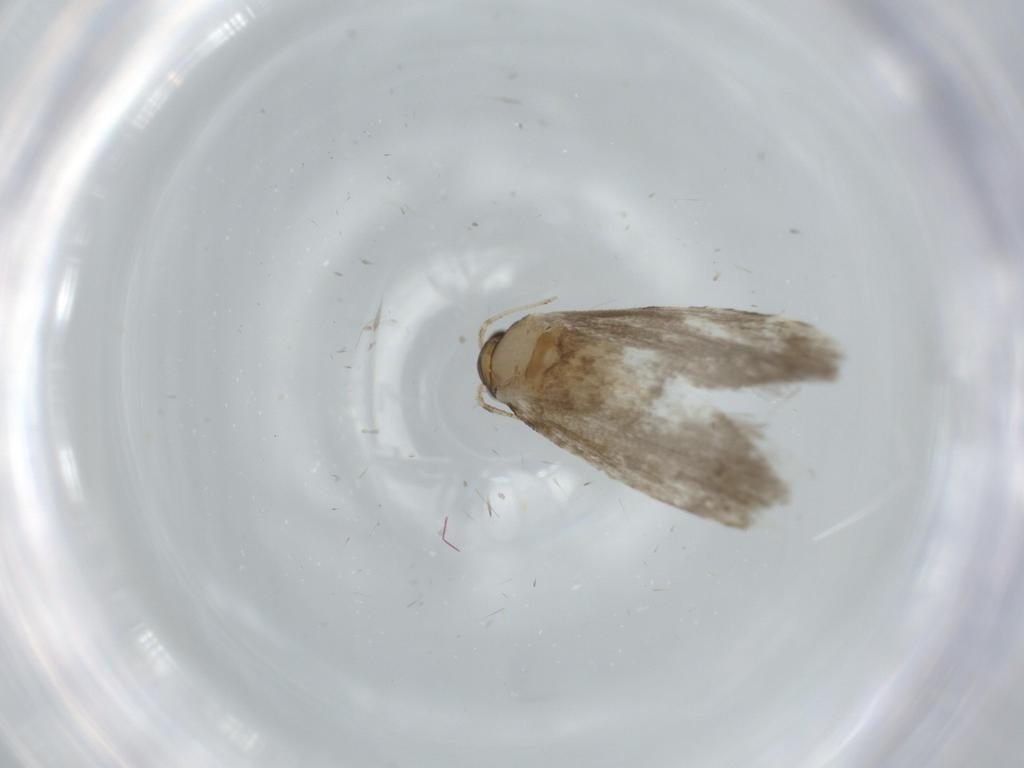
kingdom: Animalia
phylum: Arthropoda
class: Insecta
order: Lepidoptera
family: Tineidae
